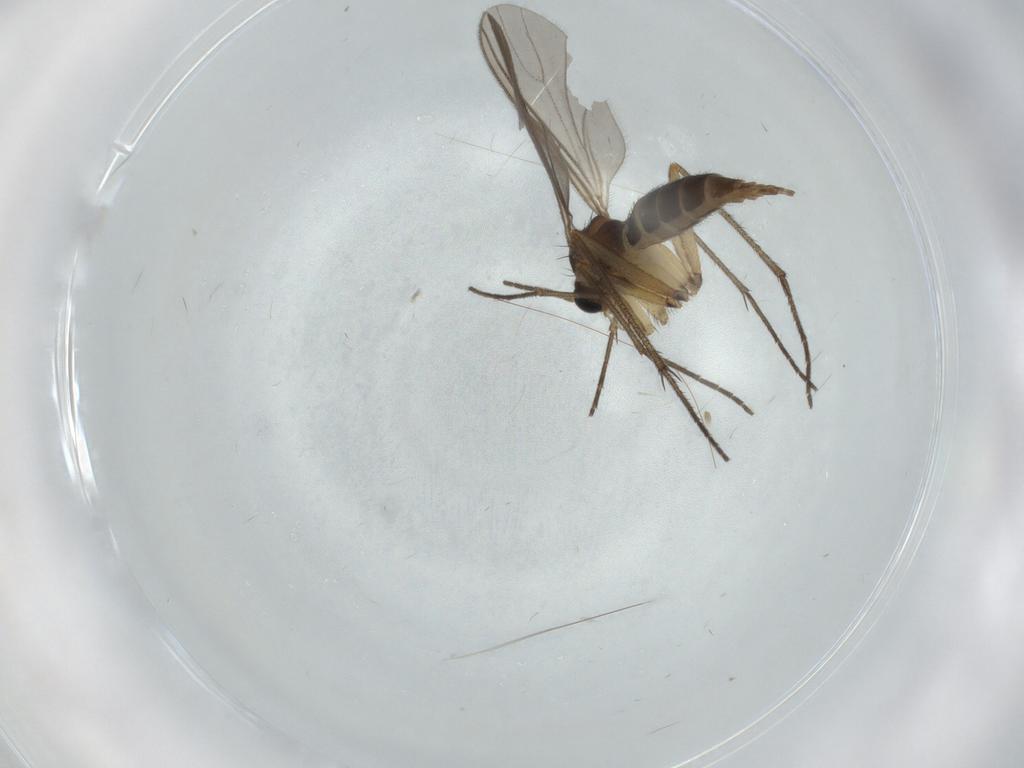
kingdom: Animalia
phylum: Arthropoda
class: Insecta
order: Diptera
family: Sciaridae
